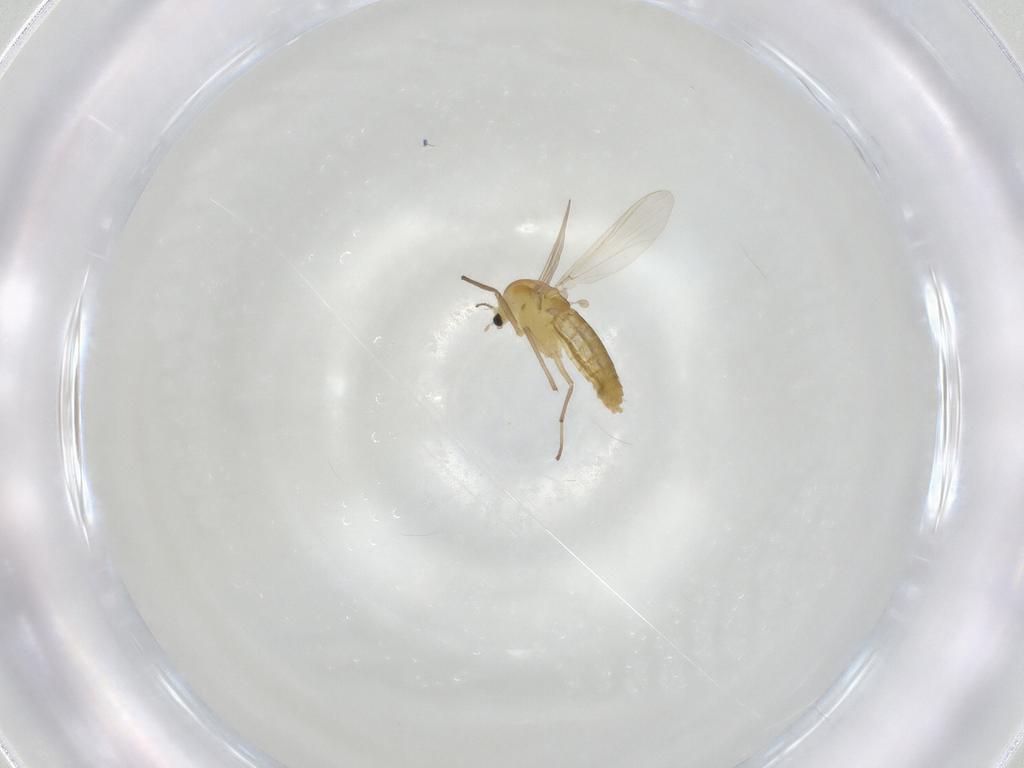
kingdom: Animalia
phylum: Arthropoda
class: Insecta
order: Diptera
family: Chironomidae
